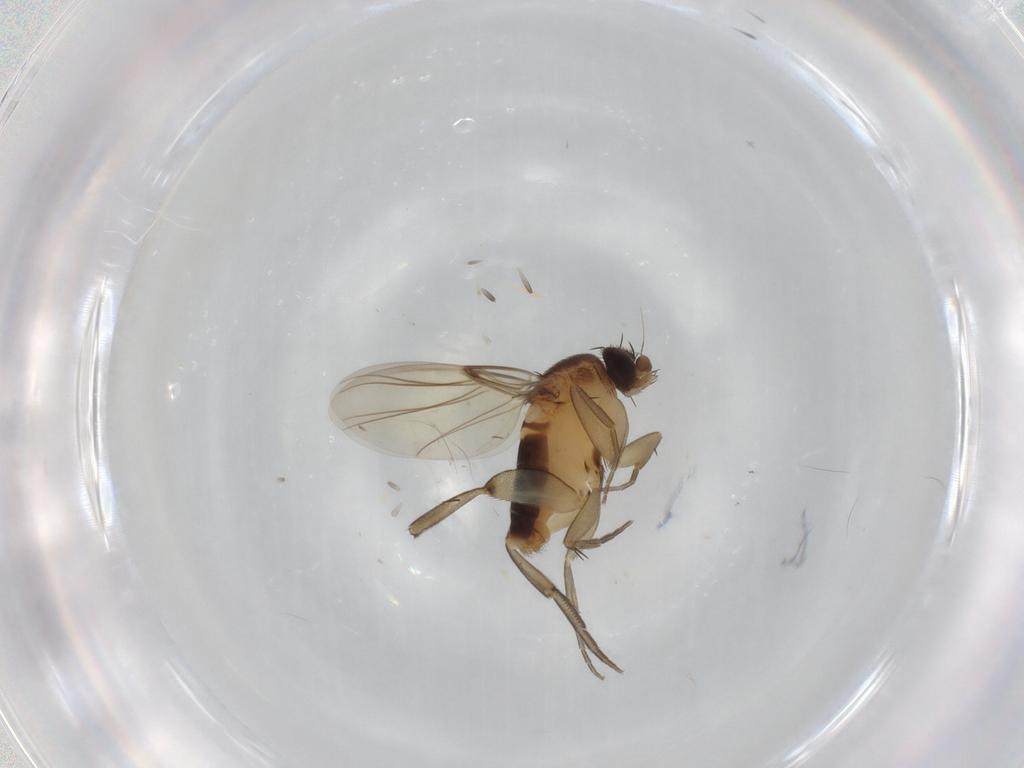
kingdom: Animalia
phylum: Arthropoda
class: Insecta
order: Diptera
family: Phoridae
